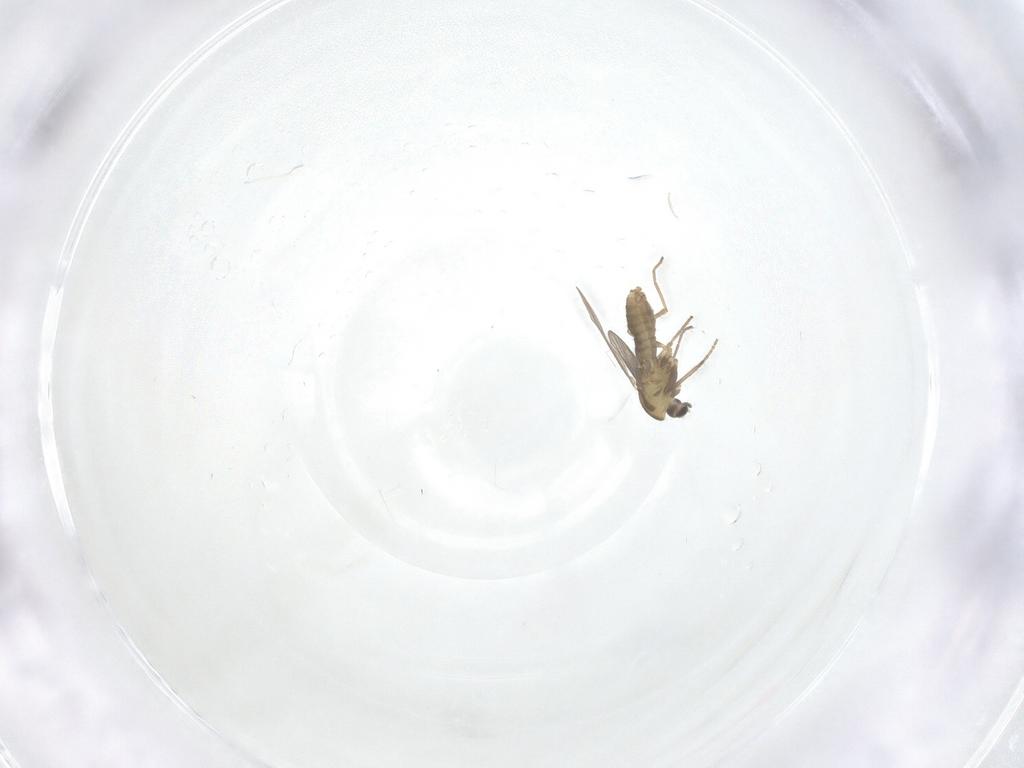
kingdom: Animalia
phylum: Arthropoda
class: Insecta
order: Diptera
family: Chironomidae
